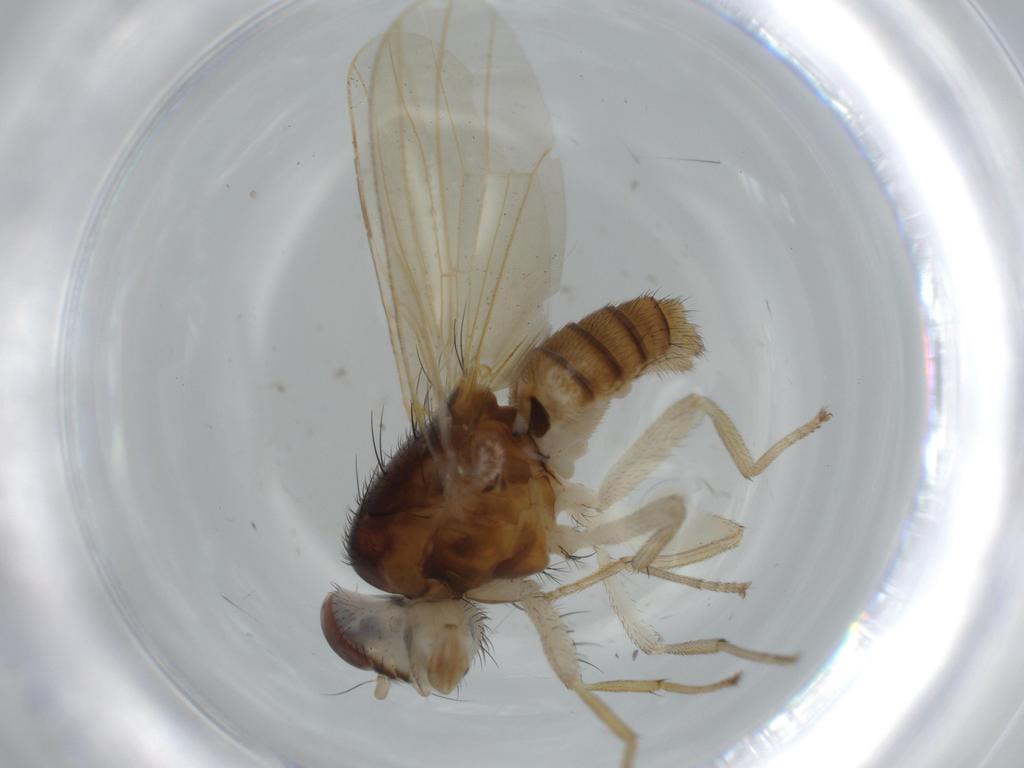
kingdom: Animalia
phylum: Arthropoda
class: Insecta
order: Diptera
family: Lauxaniidae
